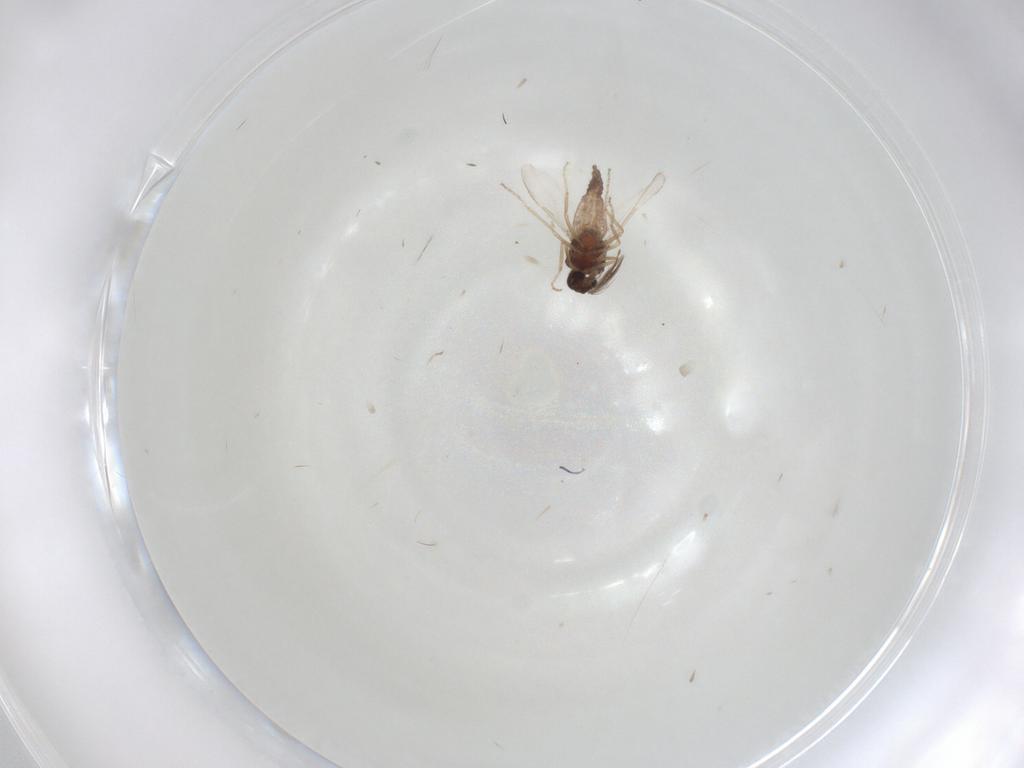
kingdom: Animalia
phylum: Arthropoda
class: Insecta
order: Diptera
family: Ceratopogonidae
